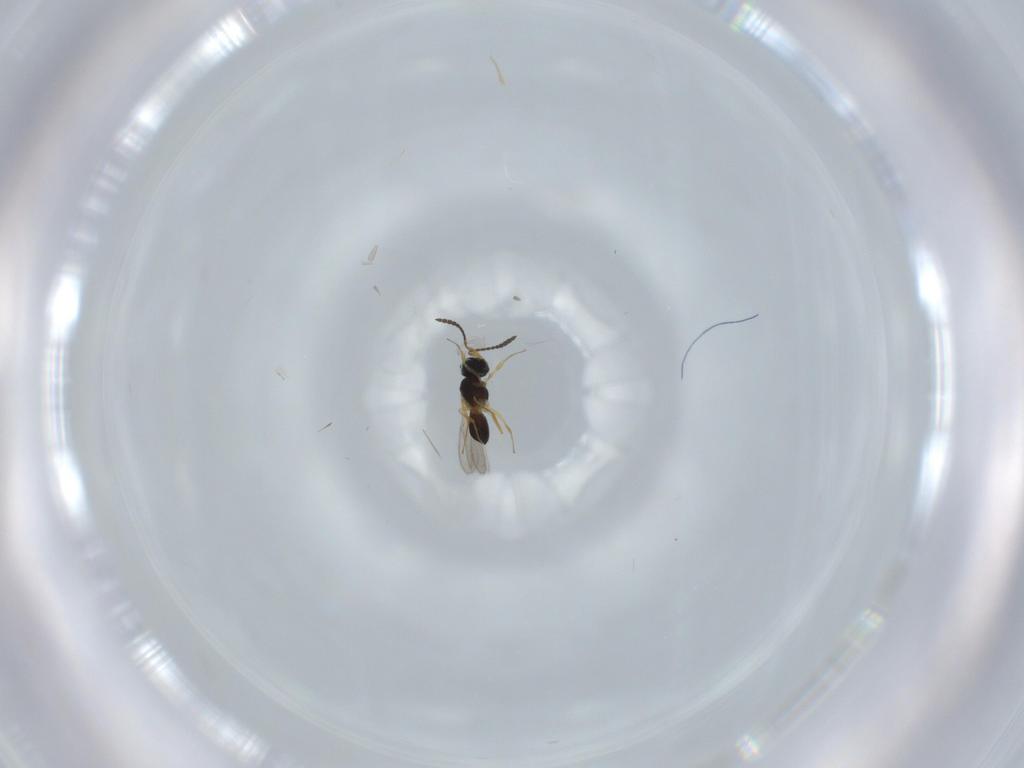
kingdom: Animalia
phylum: Arthropoda
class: Insecta
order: Hymenoptera
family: Scelionidae
